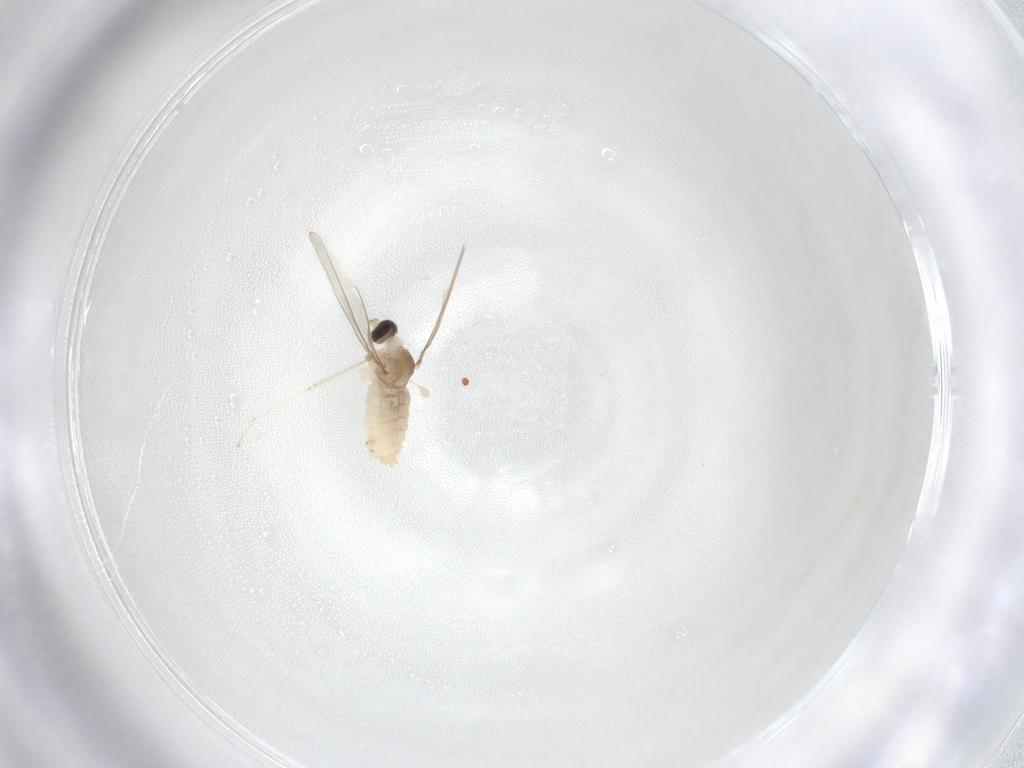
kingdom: Animalia
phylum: Arthropoda
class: Insecta
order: Diptera
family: Cecidomyiidae
